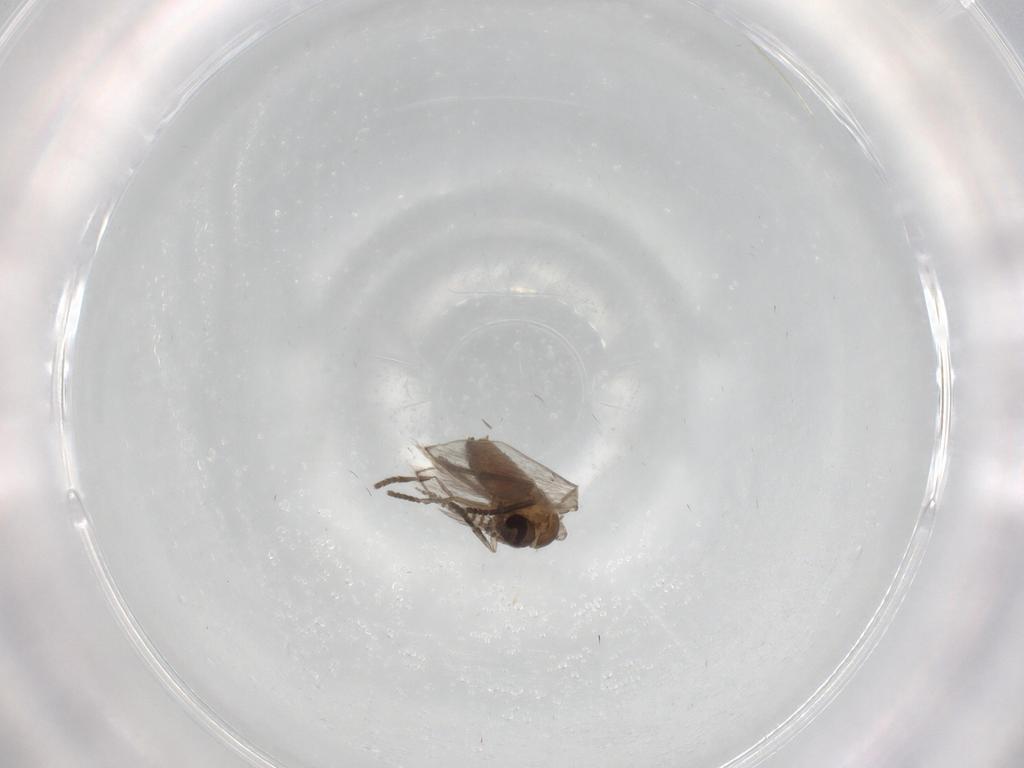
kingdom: Animalia
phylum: Arthropoda
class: Insecta
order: Diptera
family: Psychodidae
